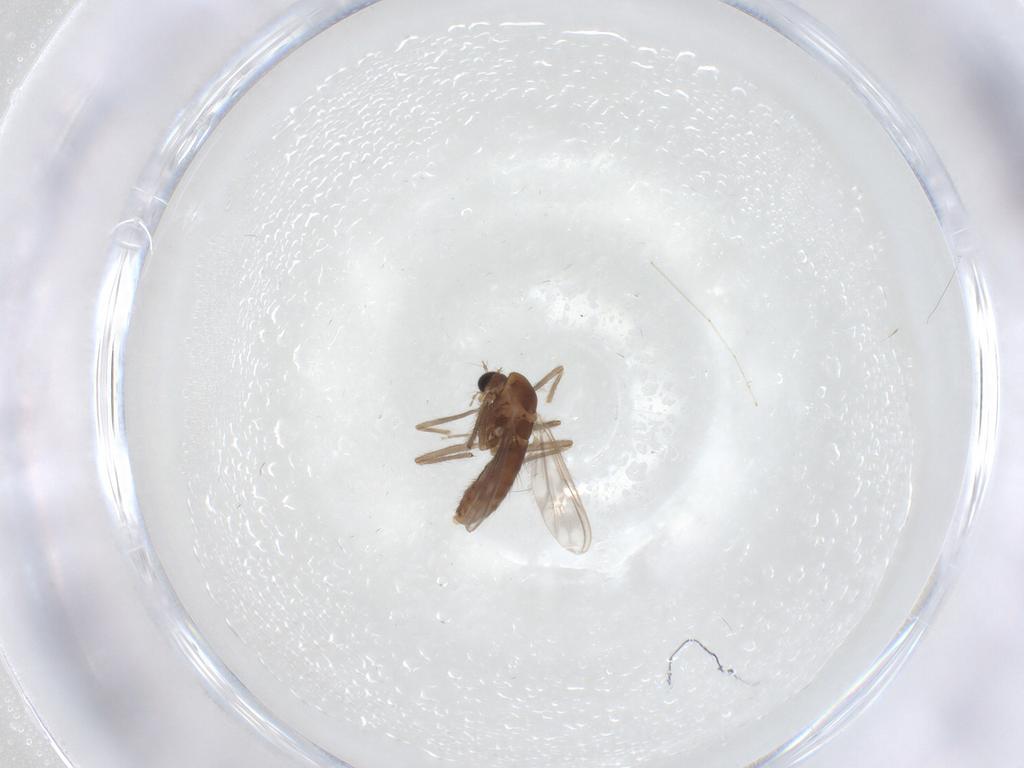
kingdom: Animalia
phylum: Arthropoda
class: Insecta
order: Diptera
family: Chironomidae
